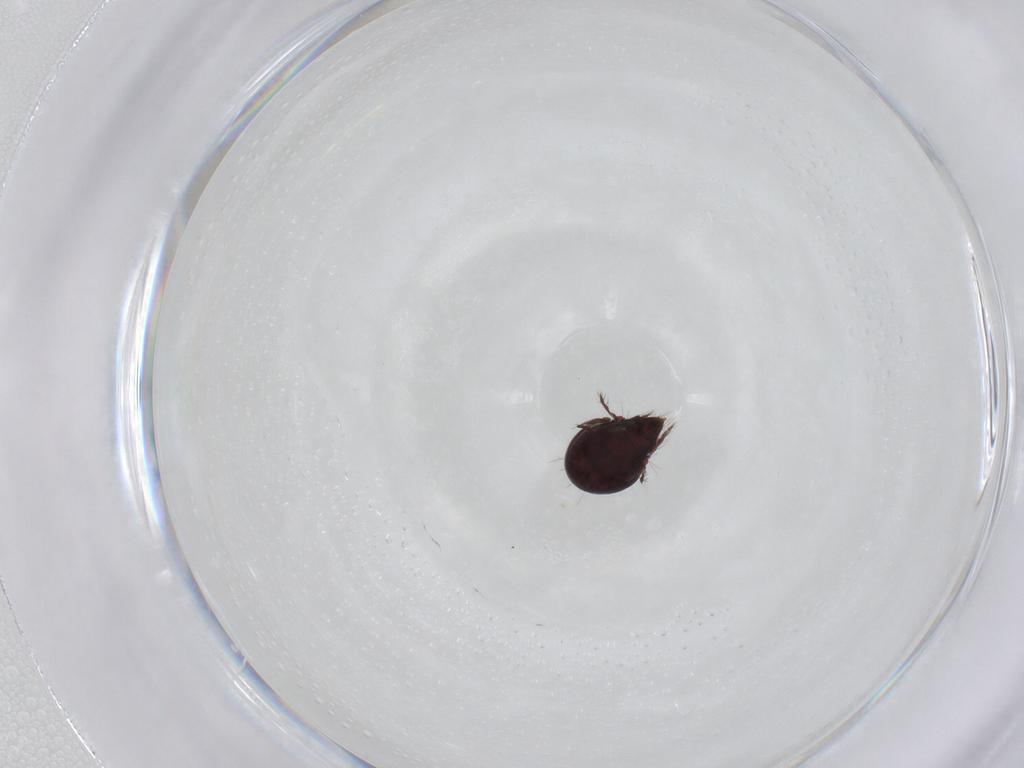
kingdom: Animalia
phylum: Arthropoda
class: Arachnida
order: Sarcoptiformes
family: Ceratoppiidae
